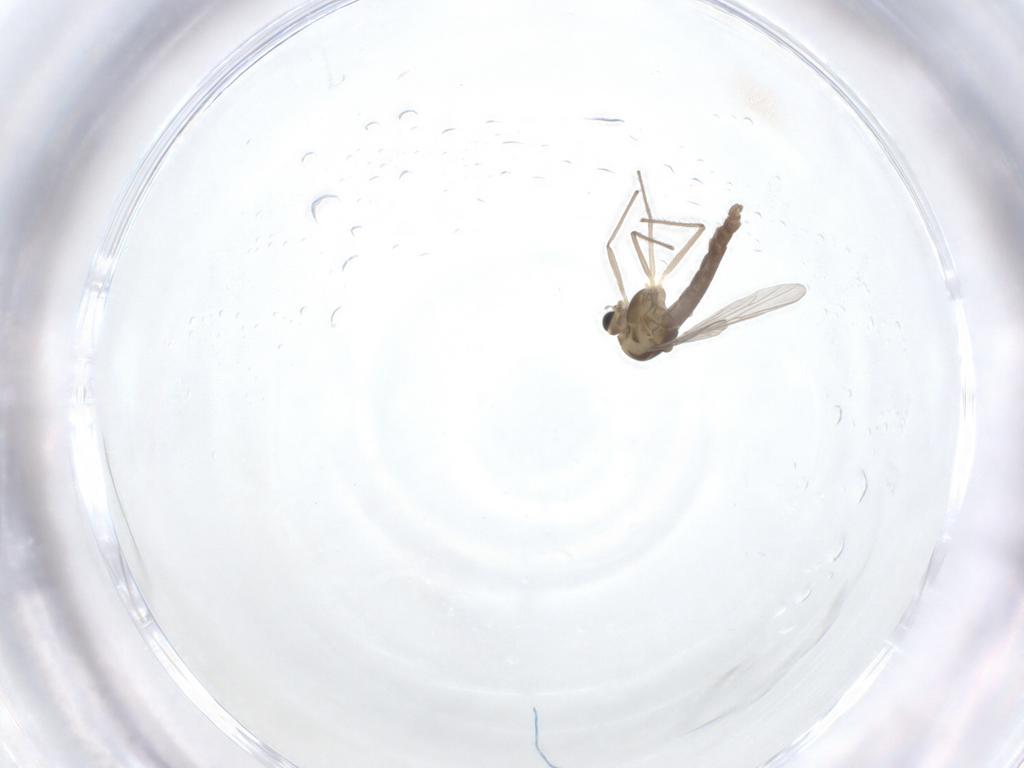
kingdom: Animalia
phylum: Arthropoda
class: Insecta
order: Diptera
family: Chironomidae
